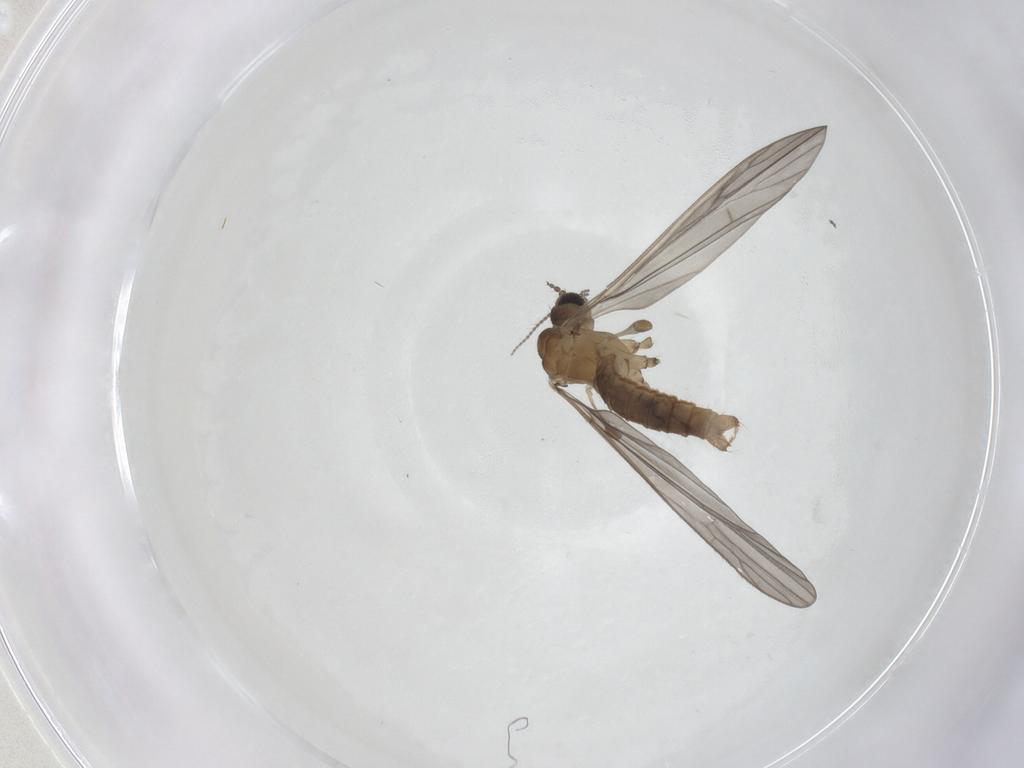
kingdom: Animalia
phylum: Arthropoda
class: Insecta
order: Diptera
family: Limoniidae
